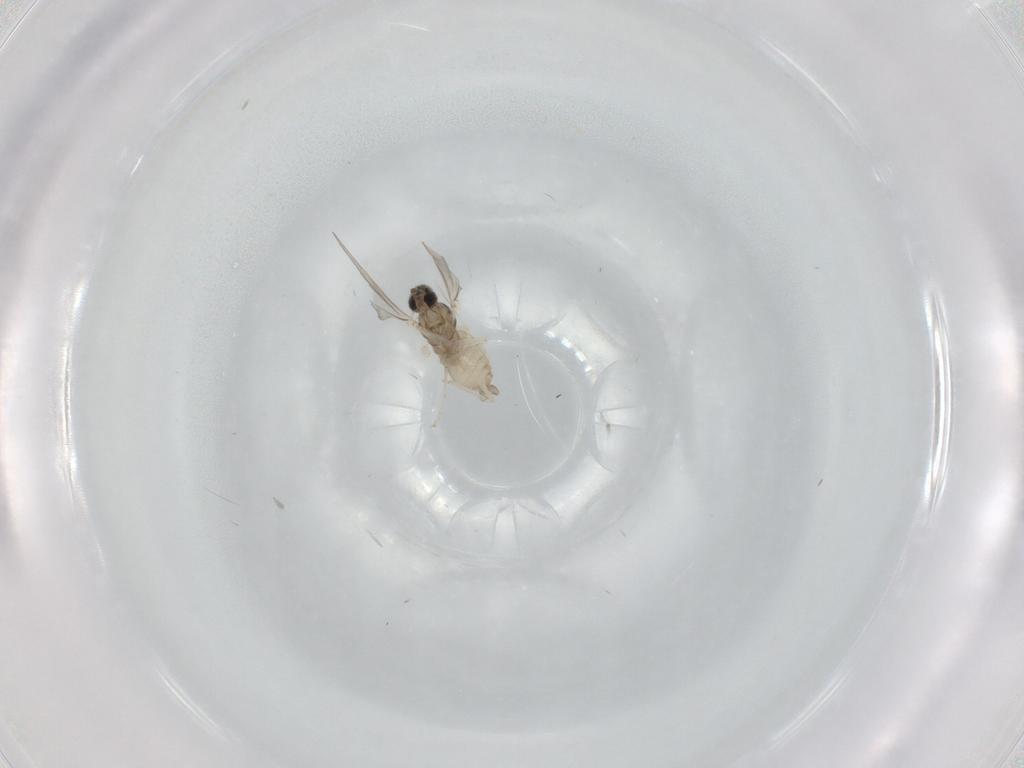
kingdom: Animalia
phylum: Arthropoda
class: Insecta
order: Diptera
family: Cecidomyiidae
